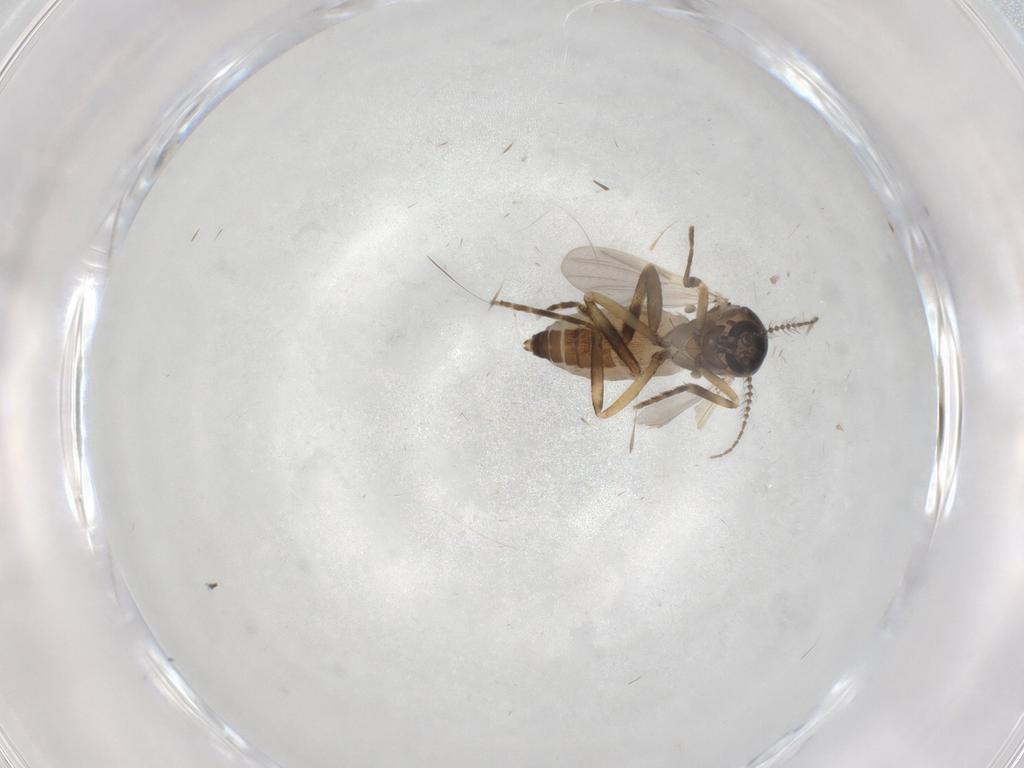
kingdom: Animalia
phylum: Arthropoda
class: Insecta
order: Diptera
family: Ceratopogonidae
